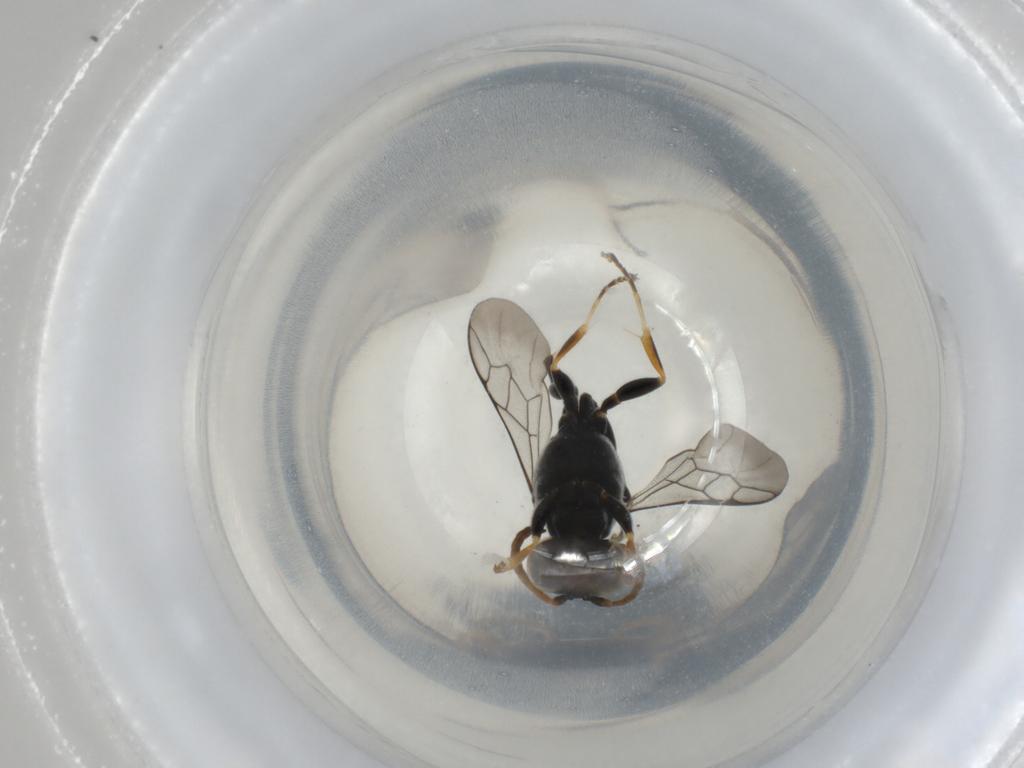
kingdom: Animalia
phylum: Arthropoda
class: Insecta
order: Hymenoptera
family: Crabronidae
